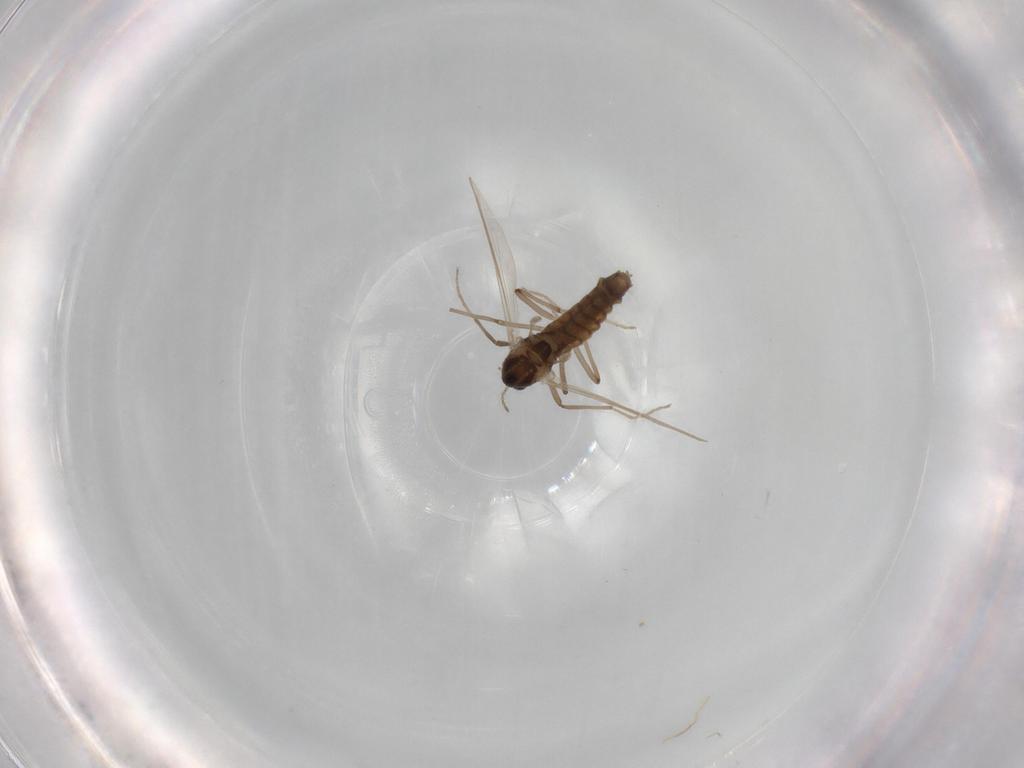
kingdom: Animalia
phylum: Arthropoda
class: Insecta
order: Diptera
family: Chironomidae
